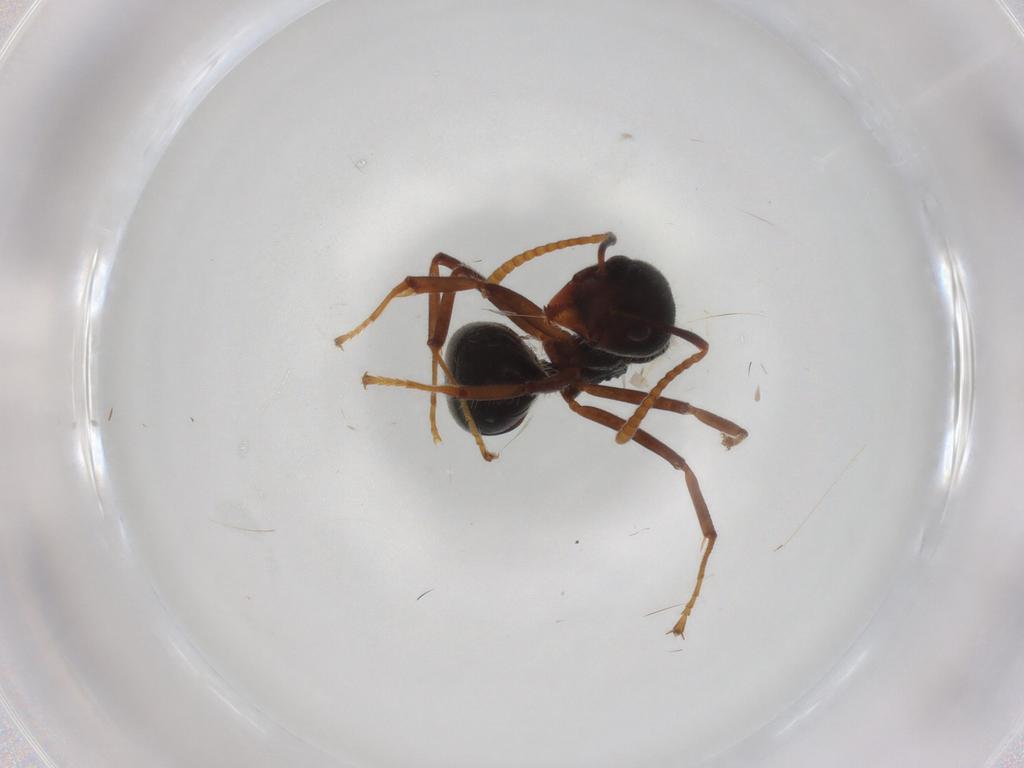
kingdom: Animalia
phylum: Arthropoda
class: Insecta
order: Hymenoptera
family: Formicidae
